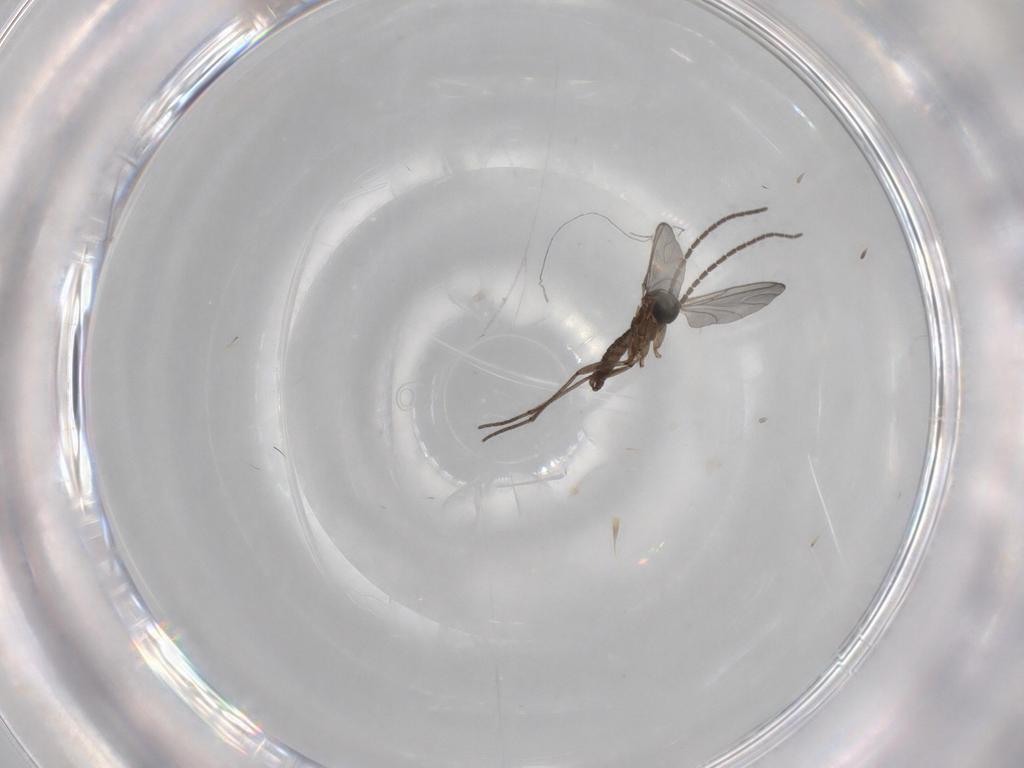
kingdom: Animalia
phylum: Arthropoda
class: Insecta
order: Diptera
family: Sciaridae
